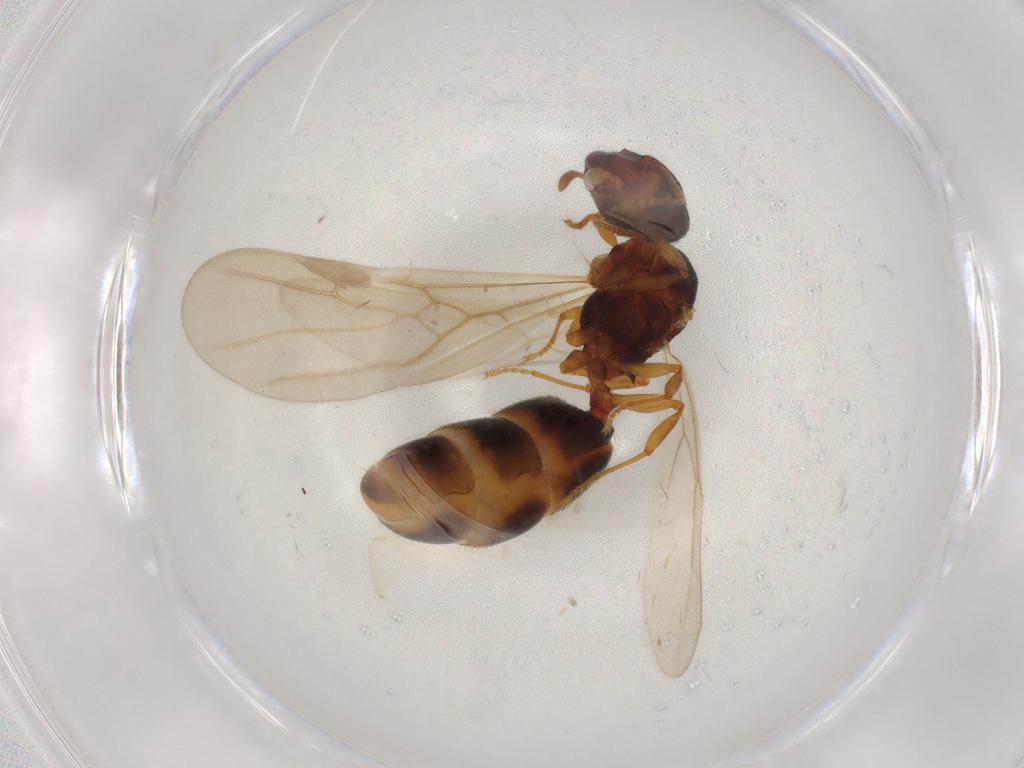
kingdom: Animalia
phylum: Arthropoda
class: Insecta
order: Hymenoptera
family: Formicidae
